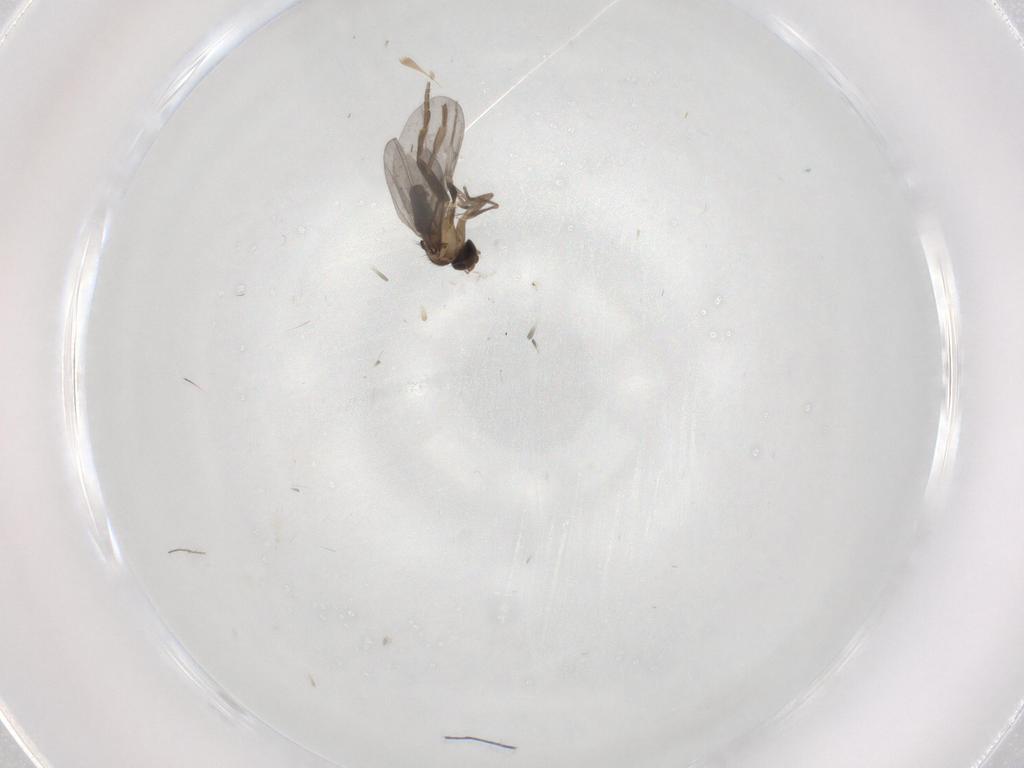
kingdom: Animalia
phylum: Arthropoda
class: Insecta
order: Diptera
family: Phoridae
